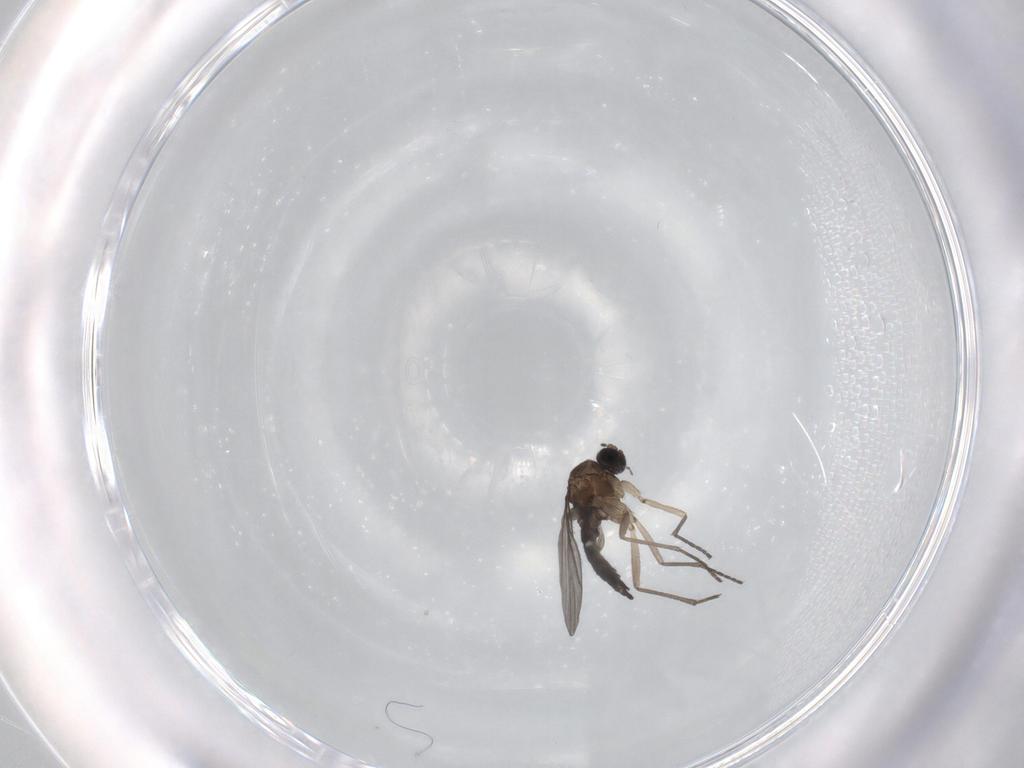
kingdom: Animalia
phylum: Arthropoda
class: Insecta
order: Diptera
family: Sciaridae
